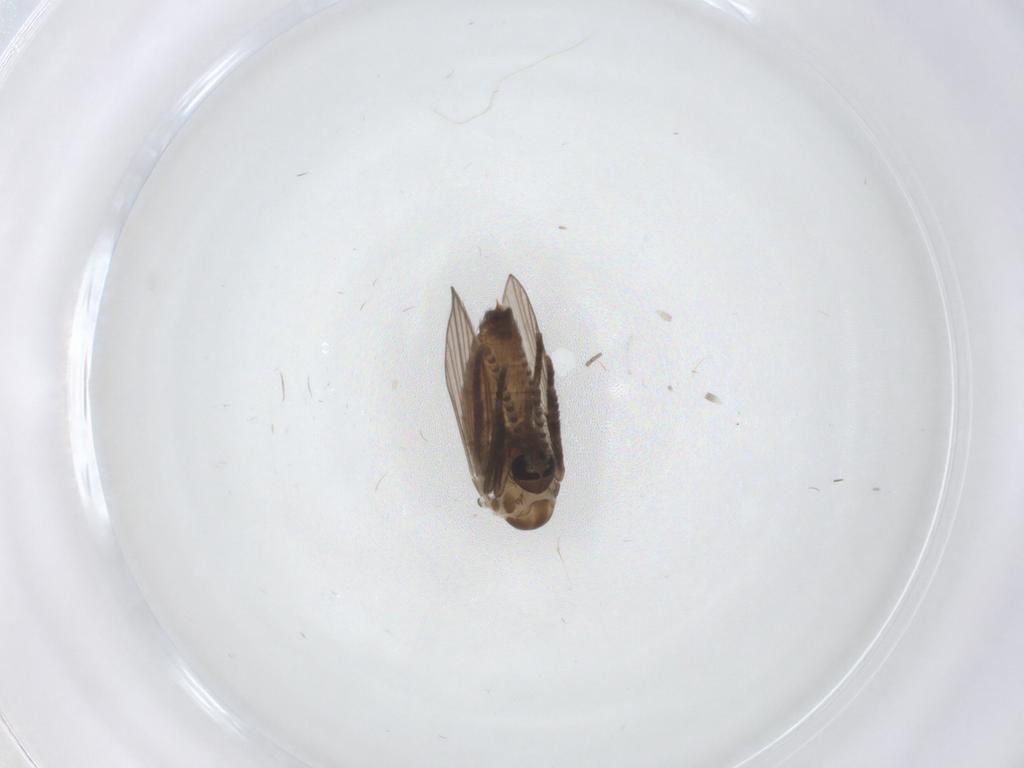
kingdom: Animalia
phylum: Arthropoda
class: Insecta
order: Diptera
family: Psychodidae
